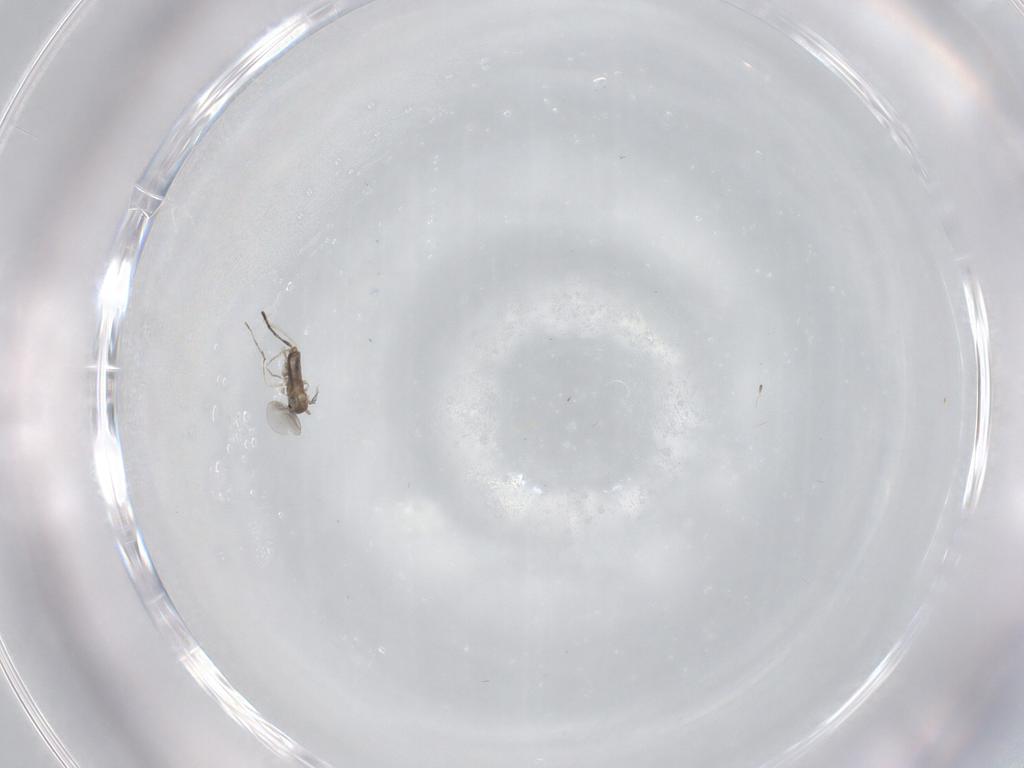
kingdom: Animalia
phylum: Arthropoda
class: Insecta
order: Diptera
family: Cecidomyiidae
